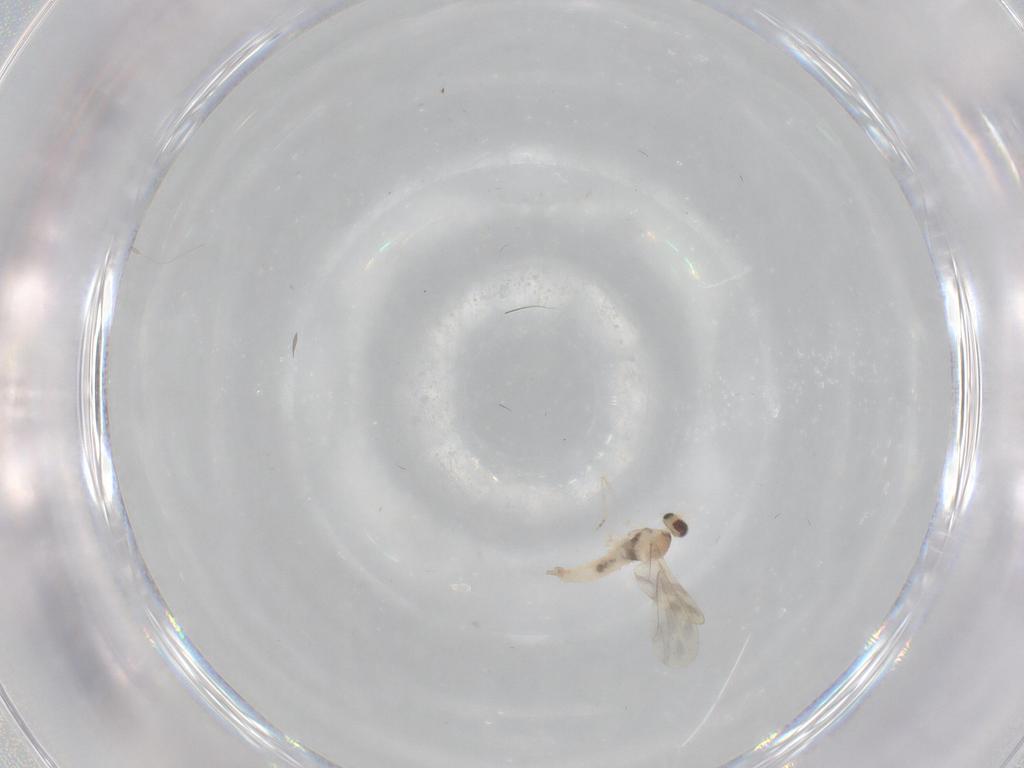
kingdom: Animalia
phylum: Arthropoda
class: Insecta
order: Diptera
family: Cecidomyiidae
